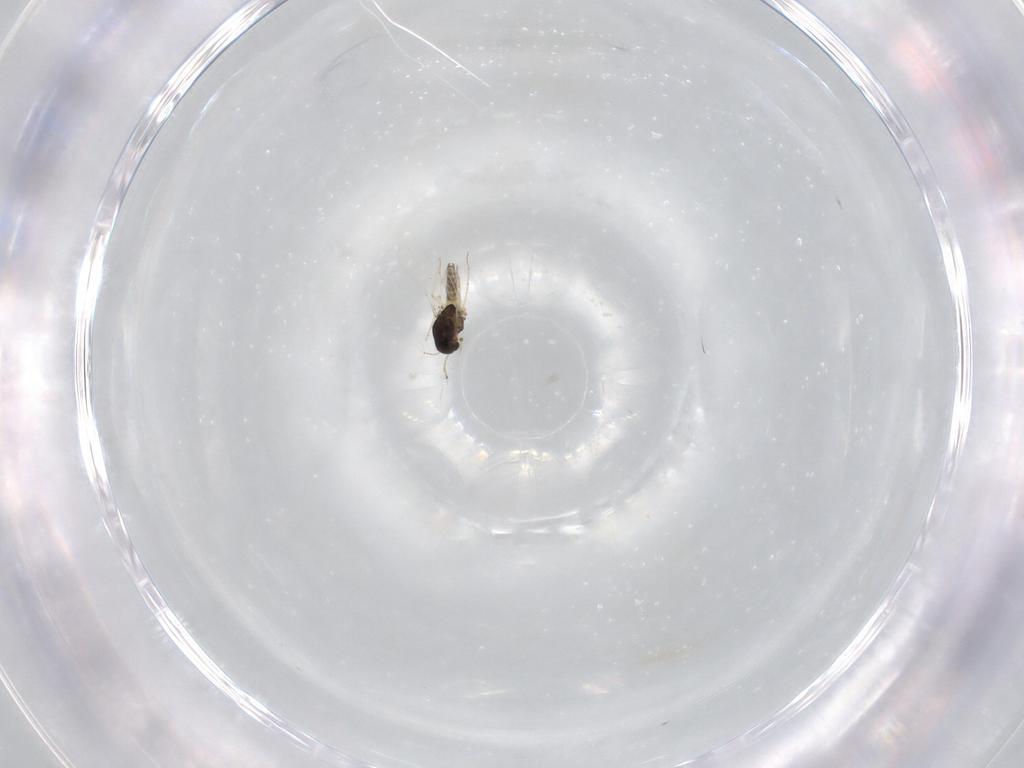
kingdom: Animalia
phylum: Arthropoda
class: Insecta
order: Diptera
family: Chironomidae
